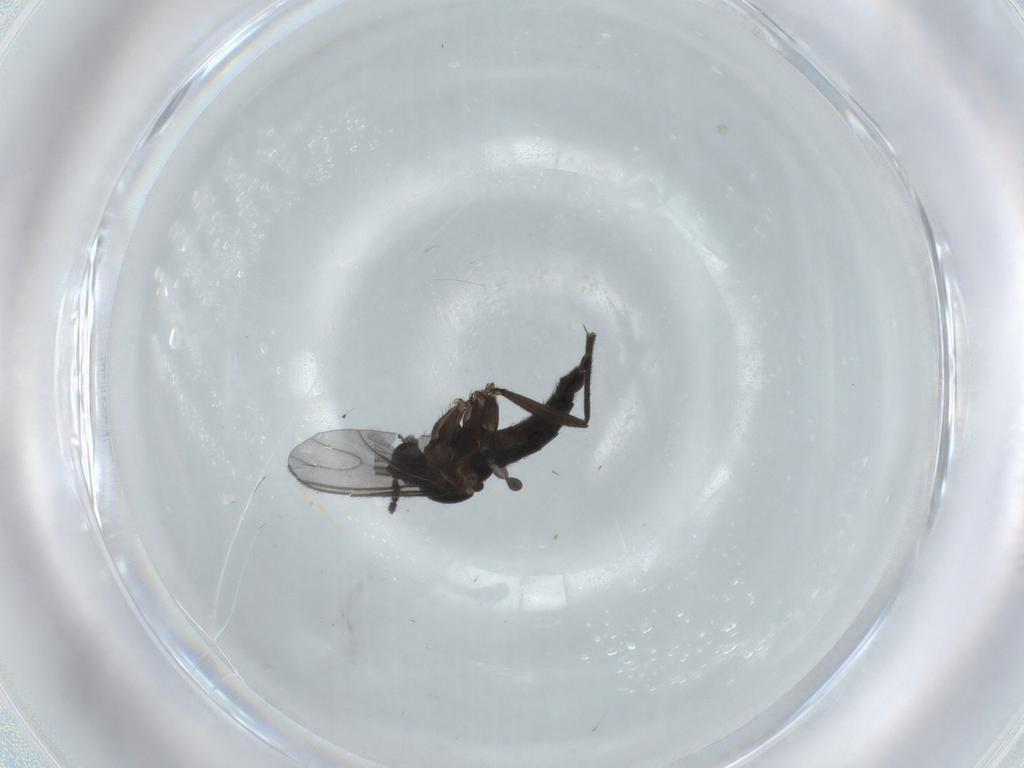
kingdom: Animalia
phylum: Arthropoda
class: Insecta
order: Diptera
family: Sciaridae
